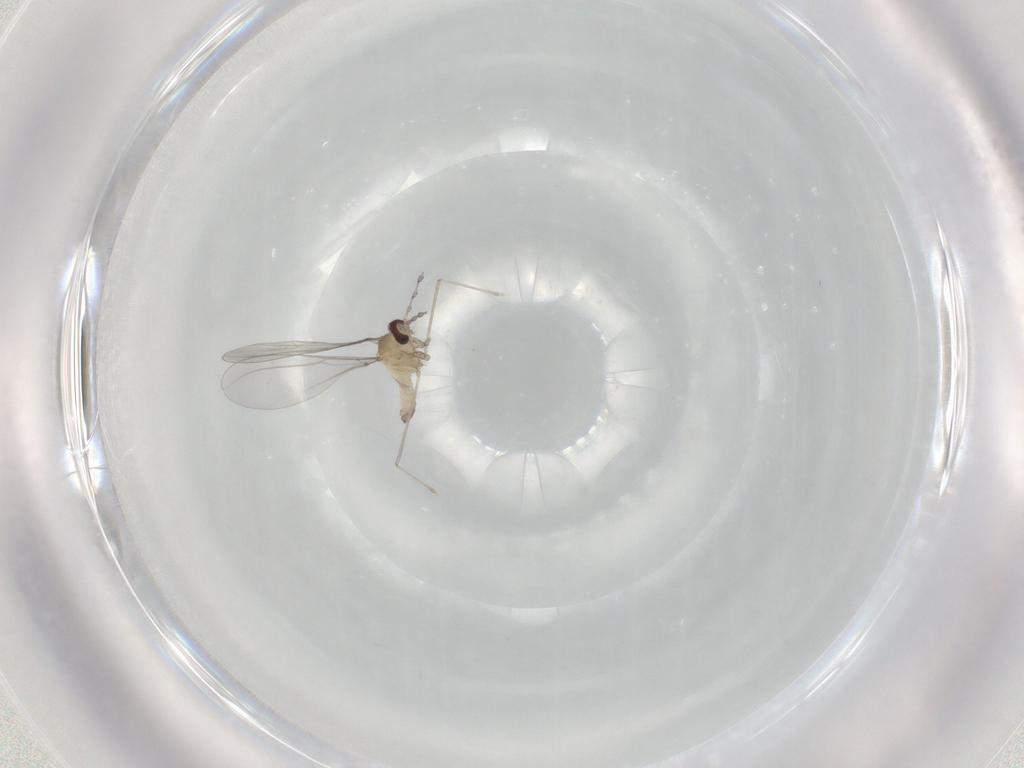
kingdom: Animalia
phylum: Arthropoda
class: Insecta
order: Diptera
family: Cecidomyiidae
